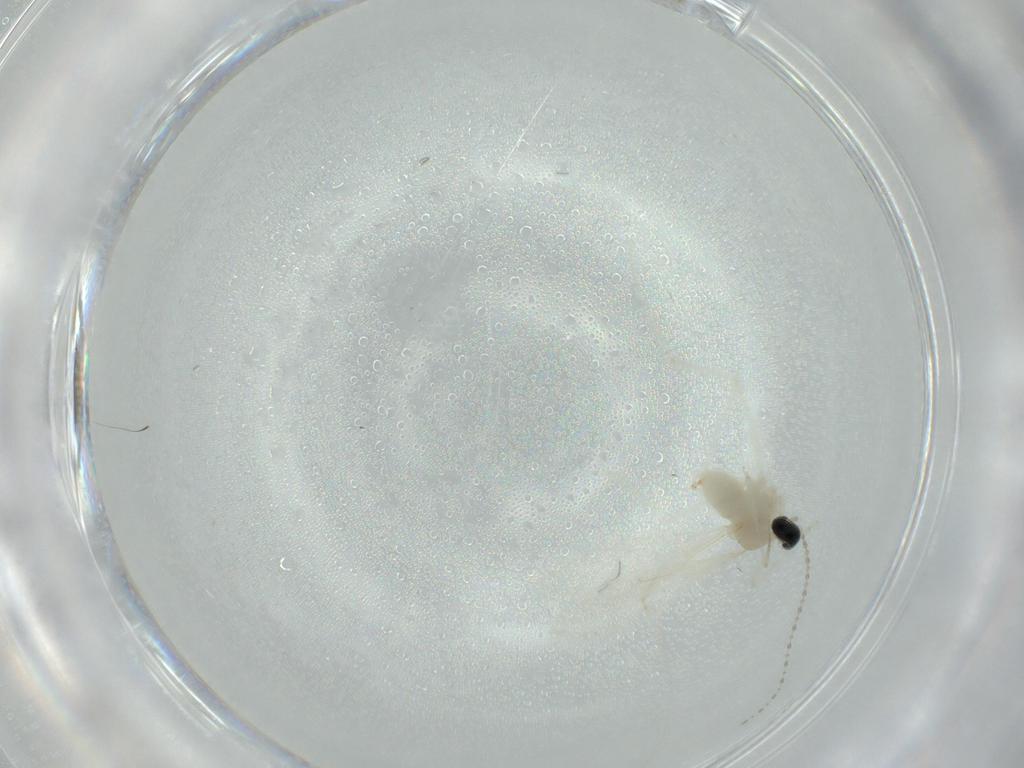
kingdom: Animalia
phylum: Arthropoda
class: Insecta
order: Diptera
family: Cecidomyiidae
